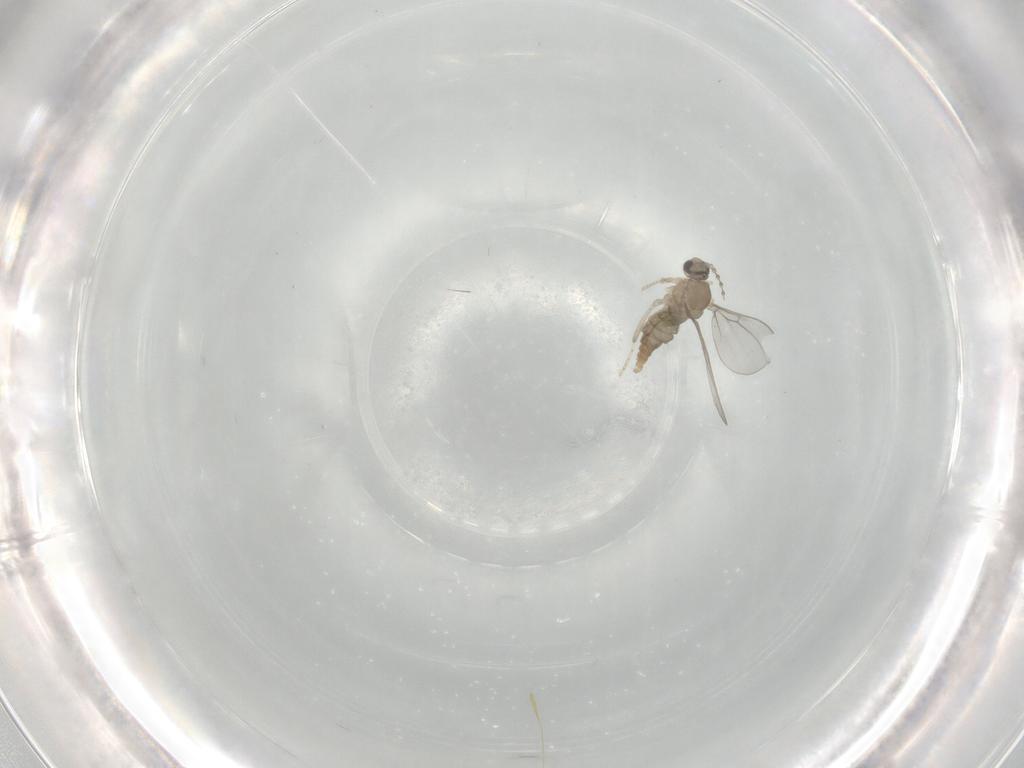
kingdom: Animalia
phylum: Arthropoda
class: Insecta
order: Diptera
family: Cecidomyiidae
